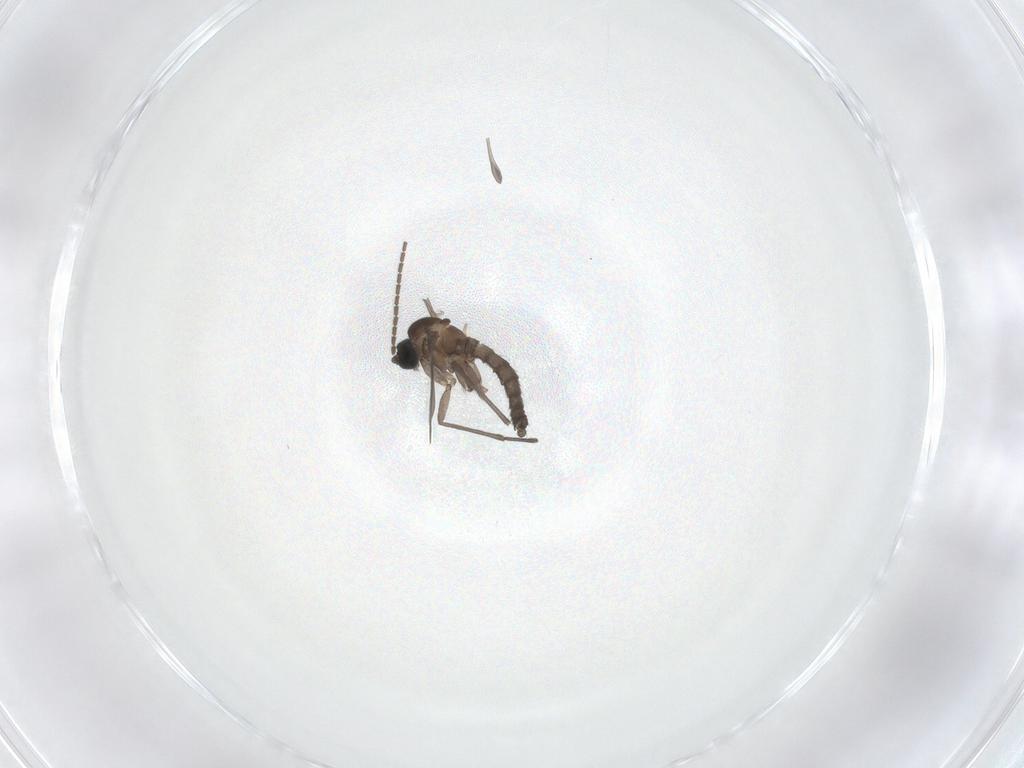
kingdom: Animalia
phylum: Arthropoda
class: Insecta
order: Diptera
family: Sciaridae
